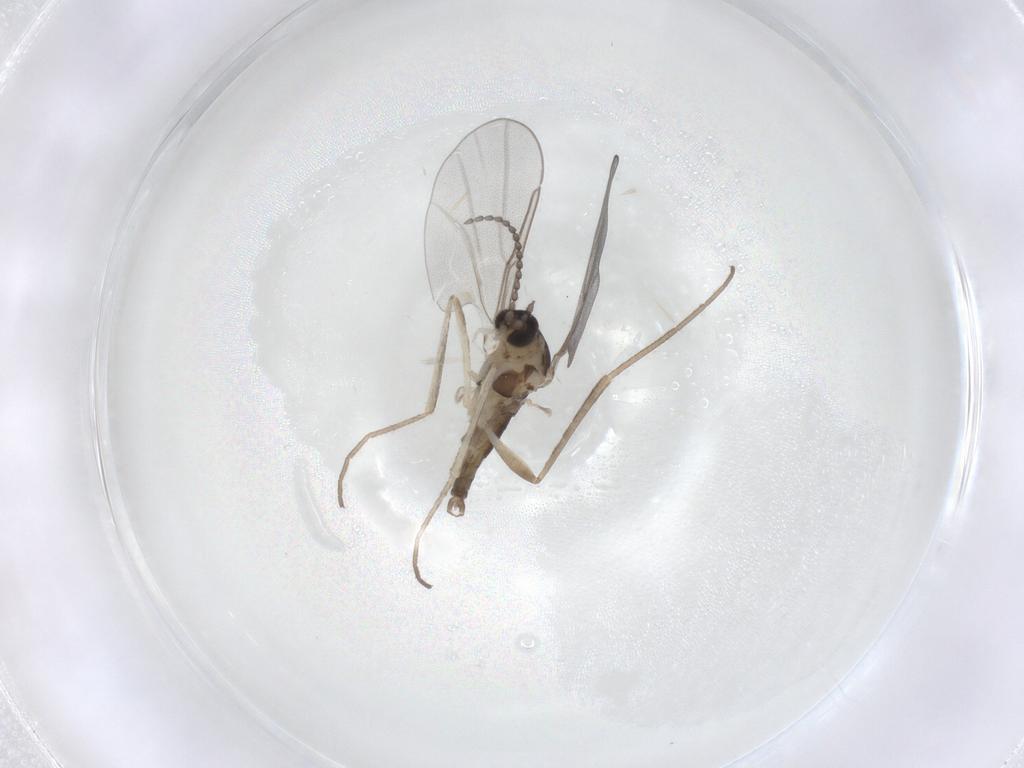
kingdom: Animalia
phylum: Arthropoda
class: Insecta
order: Diptera
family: Cecidomyiidae
